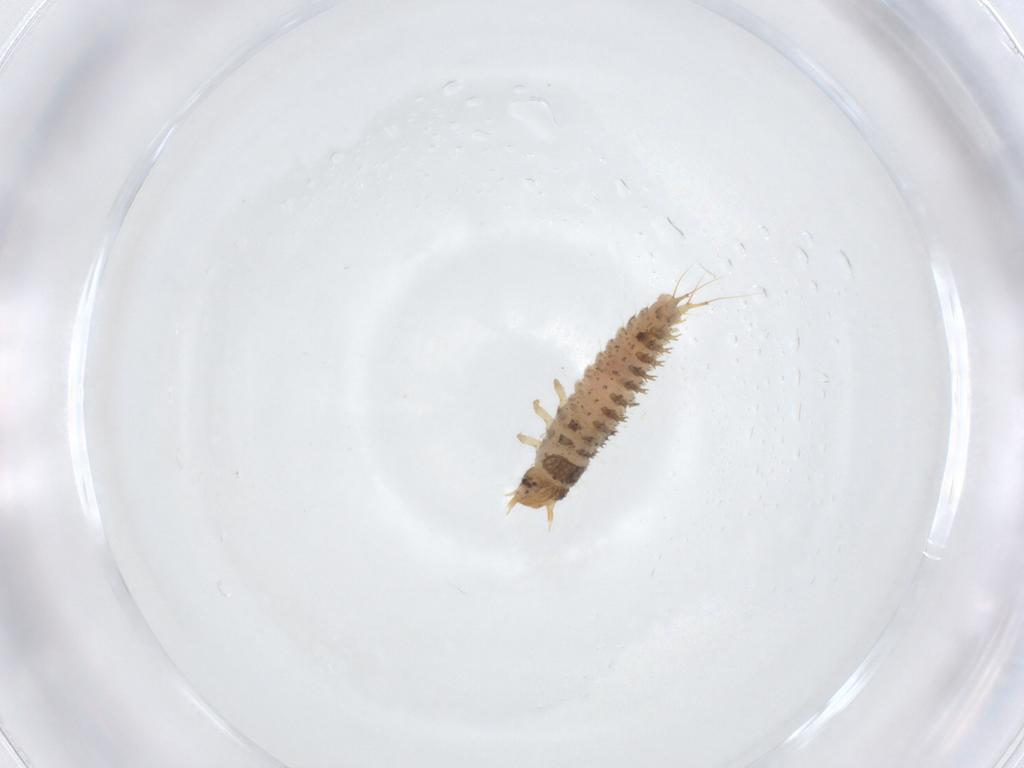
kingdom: Animalia
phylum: Arthropoda
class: Insecta
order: Coleoptera
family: Nitidulidae
